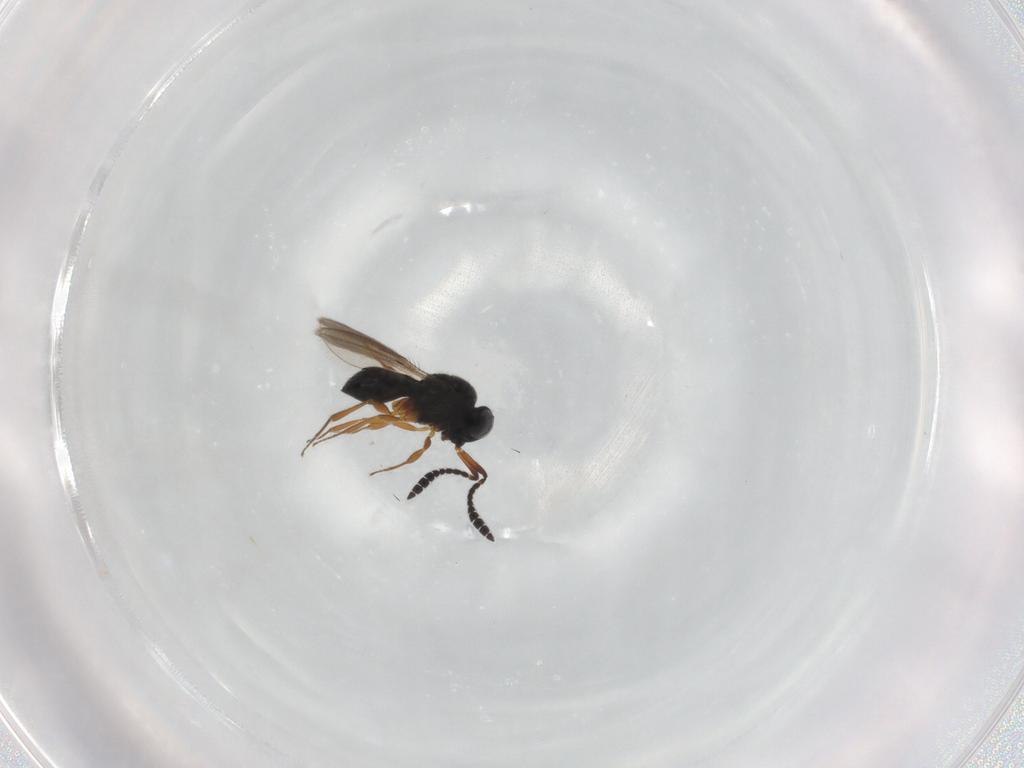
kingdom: Animalia
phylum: Arthropoda
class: Insecta
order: Hymenoptera
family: Scelionidae
